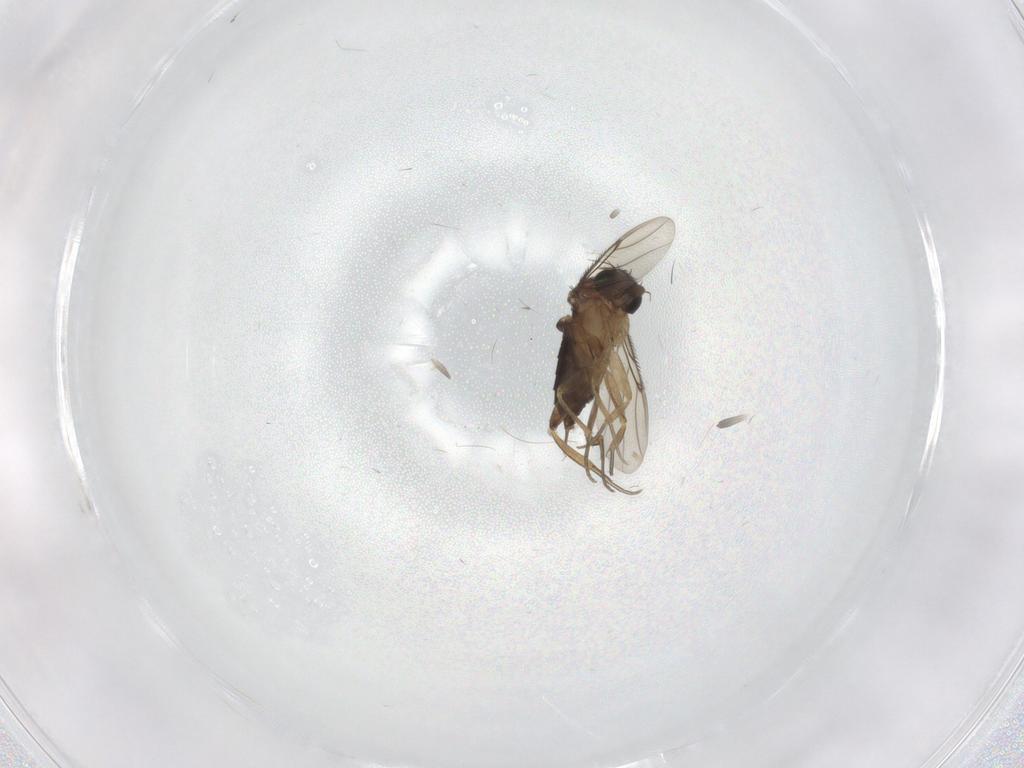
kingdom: Animalia
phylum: Arthropoda
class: Insecta
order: Diptera
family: Phoridae
